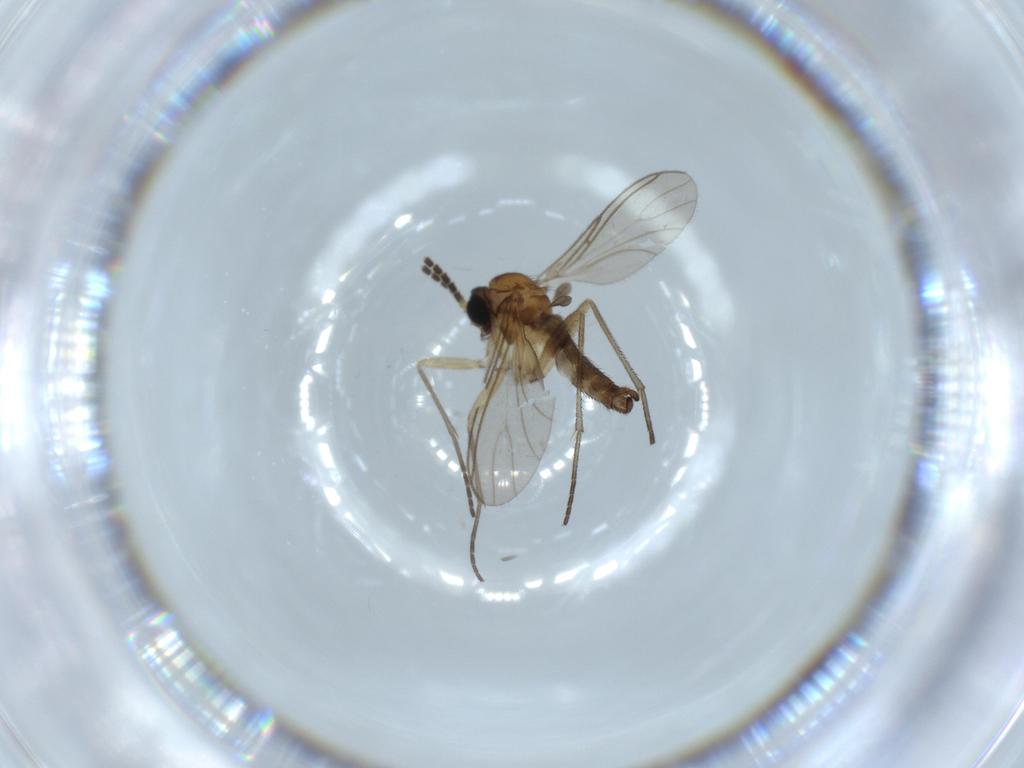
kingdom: Animalia
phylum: Arthropoda
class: Insecta
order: Diptera
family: Sciaridae
